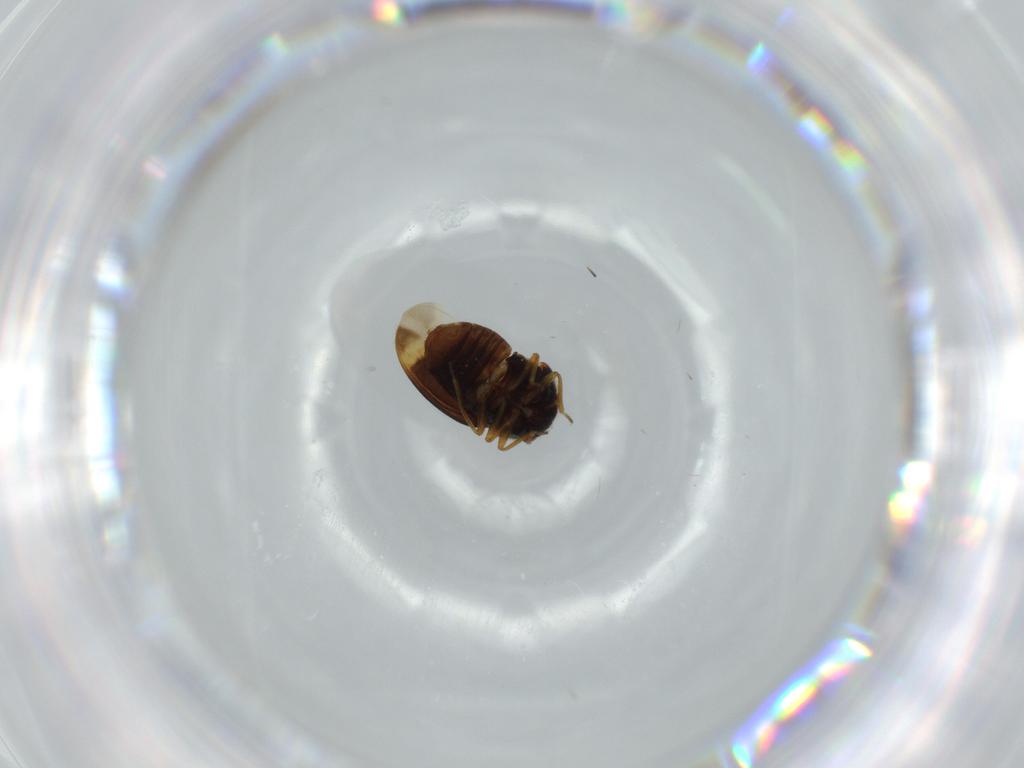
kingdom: Animalia
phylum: Arthropoda
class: Insecta
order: Hemiptera
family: Schizopteridae
